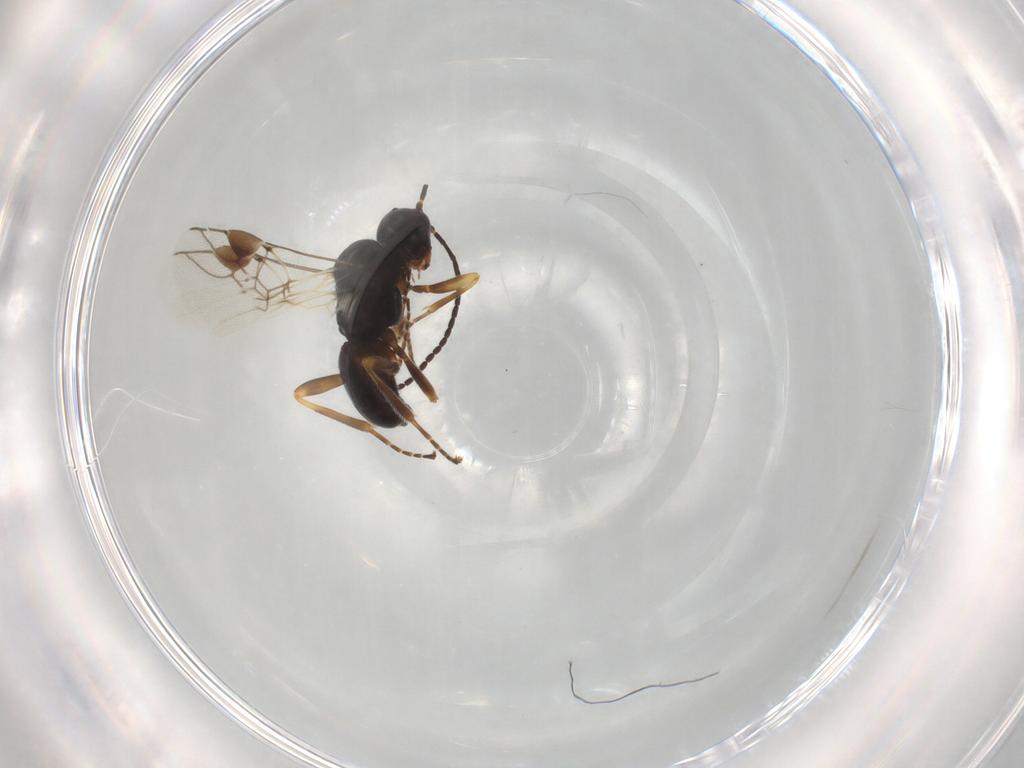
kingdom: Animalia
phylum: Arthropoda
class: Insecta
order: Hymenoptera
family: Braconidae
